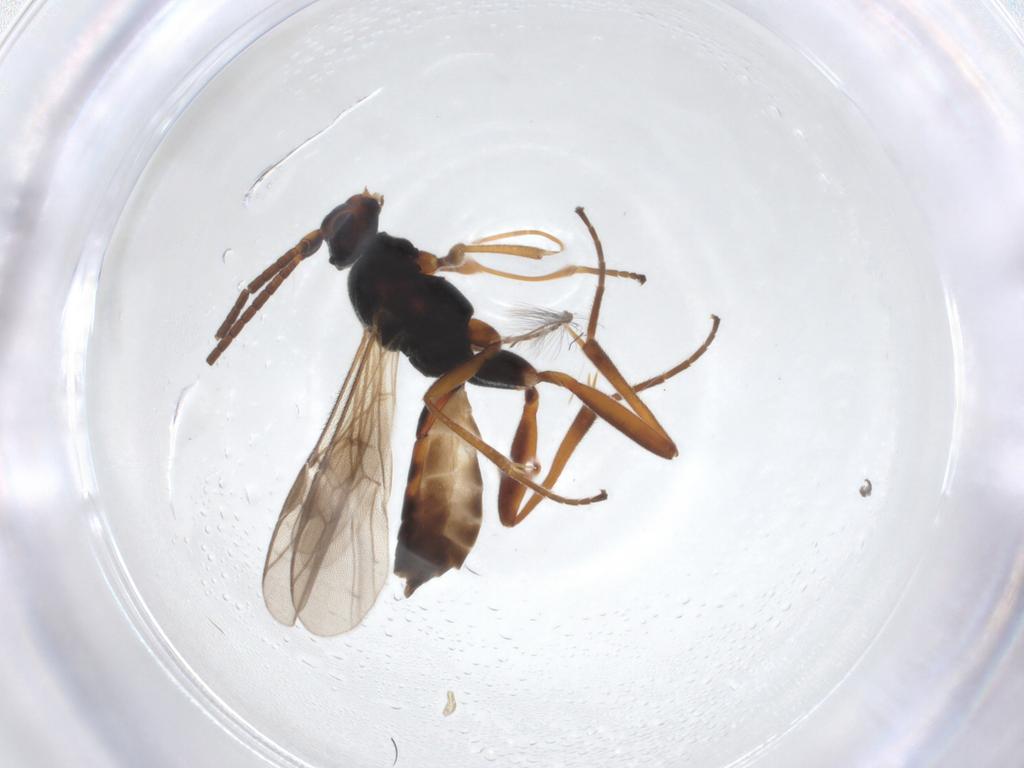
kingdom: Animalia
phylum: Arthropoda
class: Insecta
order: Hymenoptera
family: Braconidae
